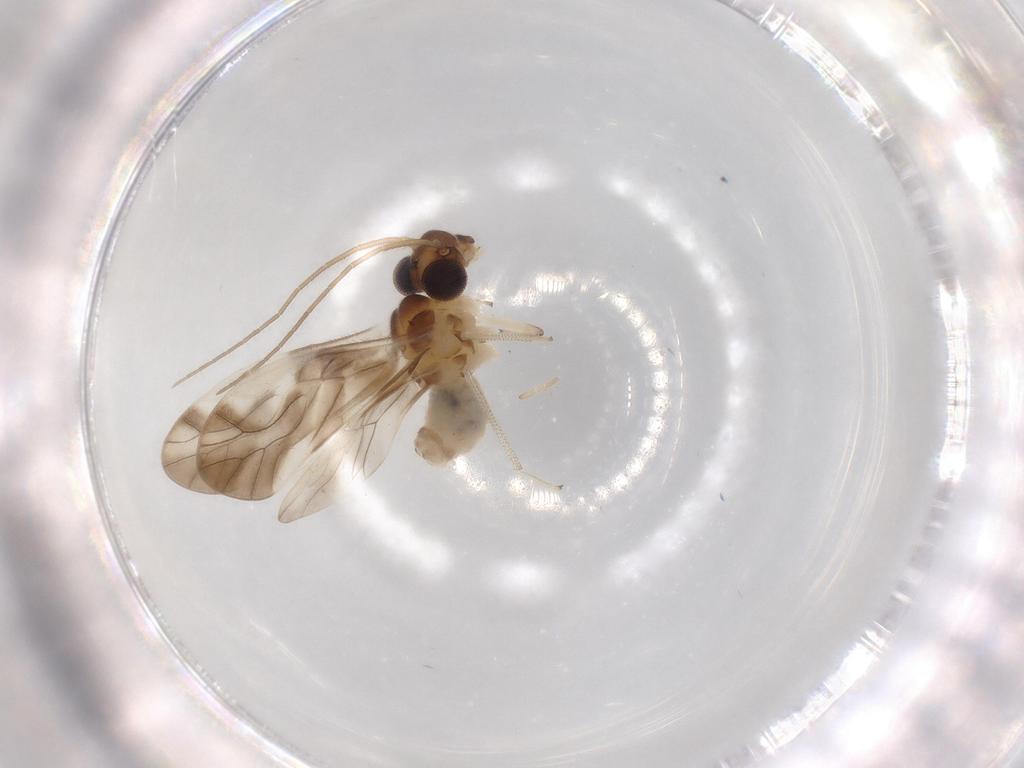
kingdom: Animalia
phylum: Arthropoda
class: Insecta
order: Psocodea
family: Caeciliusidae
